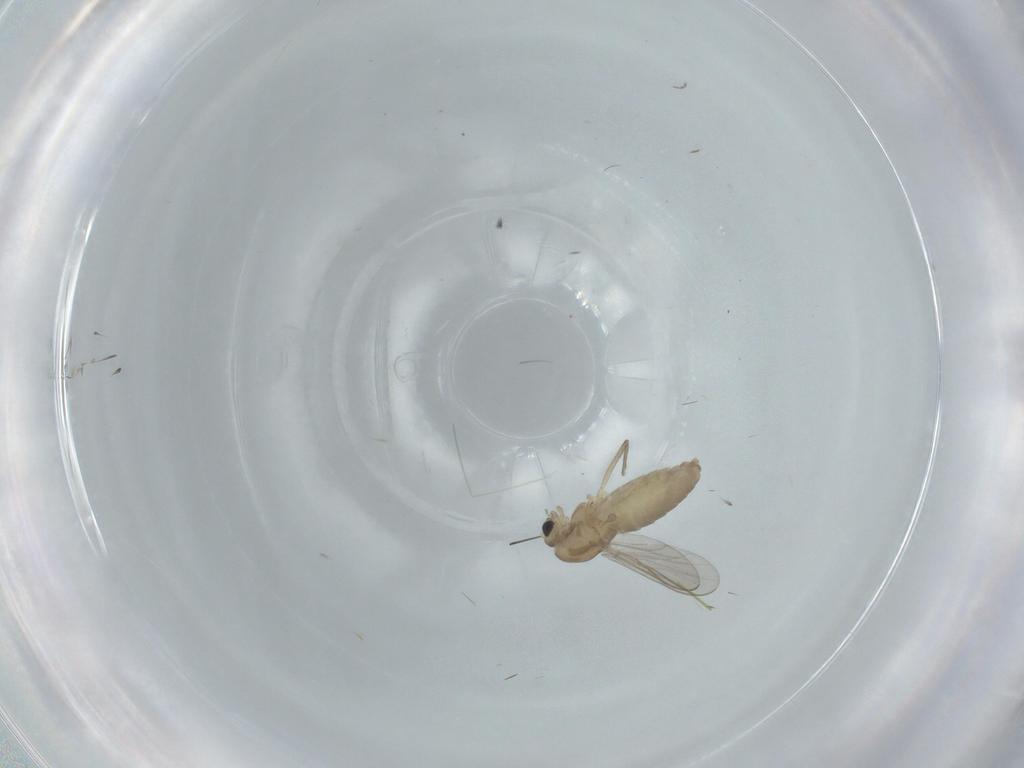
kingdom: Animalia
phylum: Arthropoda
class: Insecta
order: Diptera
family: Chironomidae
